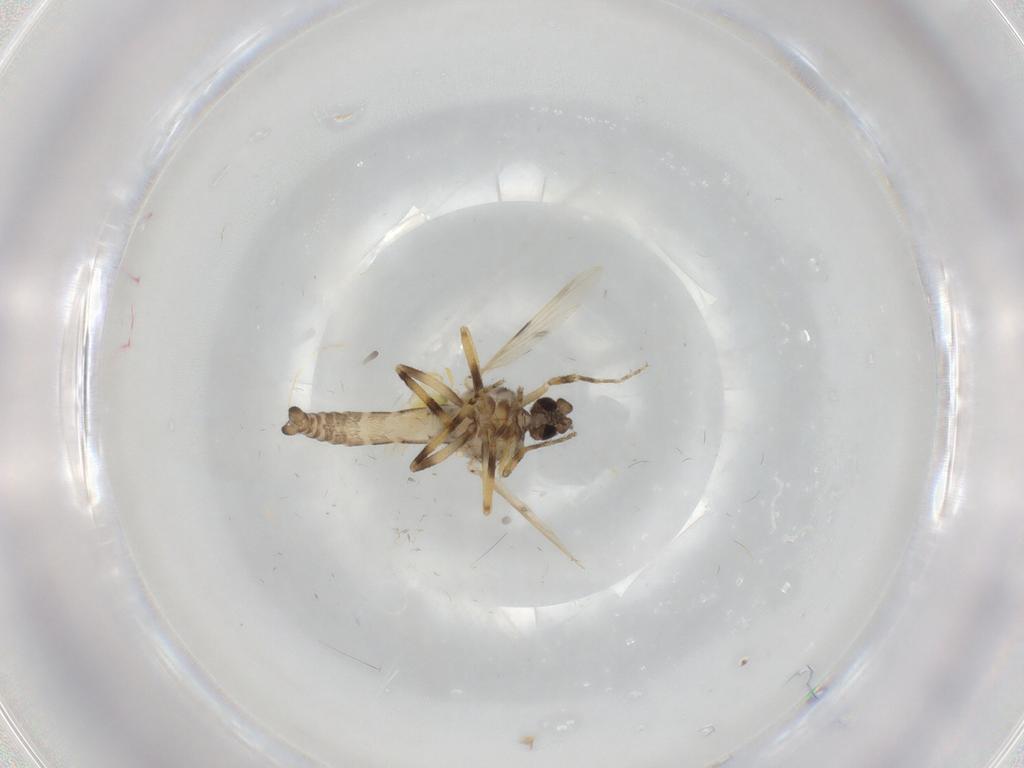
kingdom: Animalia
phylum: Arthropoda
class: Insecta
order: Diptera
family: Ceratopogonidae
